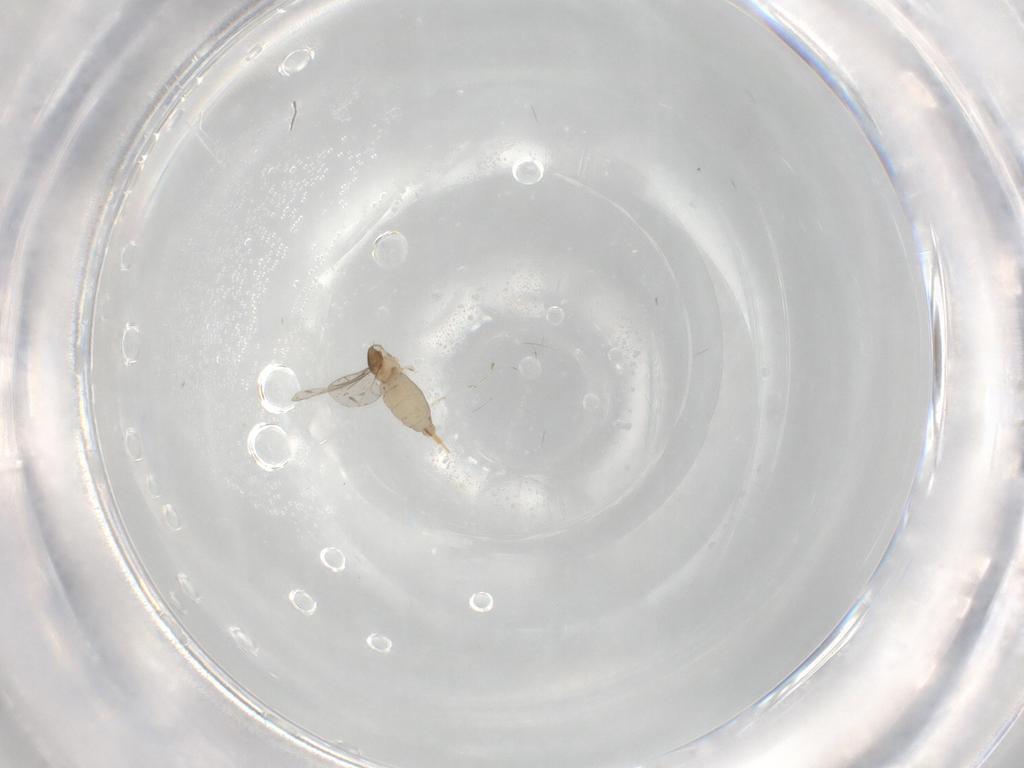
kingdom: Animalia
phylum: Arthropoda
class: Insecta
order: Diptera
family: Cecidomyiidae
